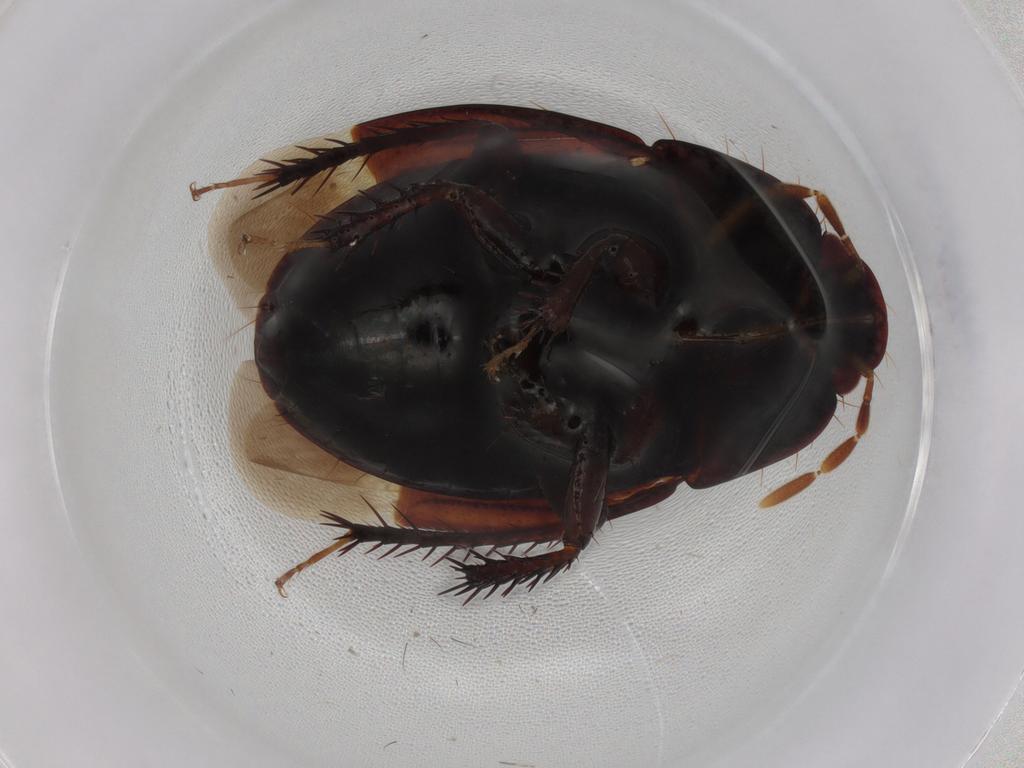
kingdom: Animalia
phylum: Arthropoda
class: Insecta
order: Hemiptera
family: Cydnidae
